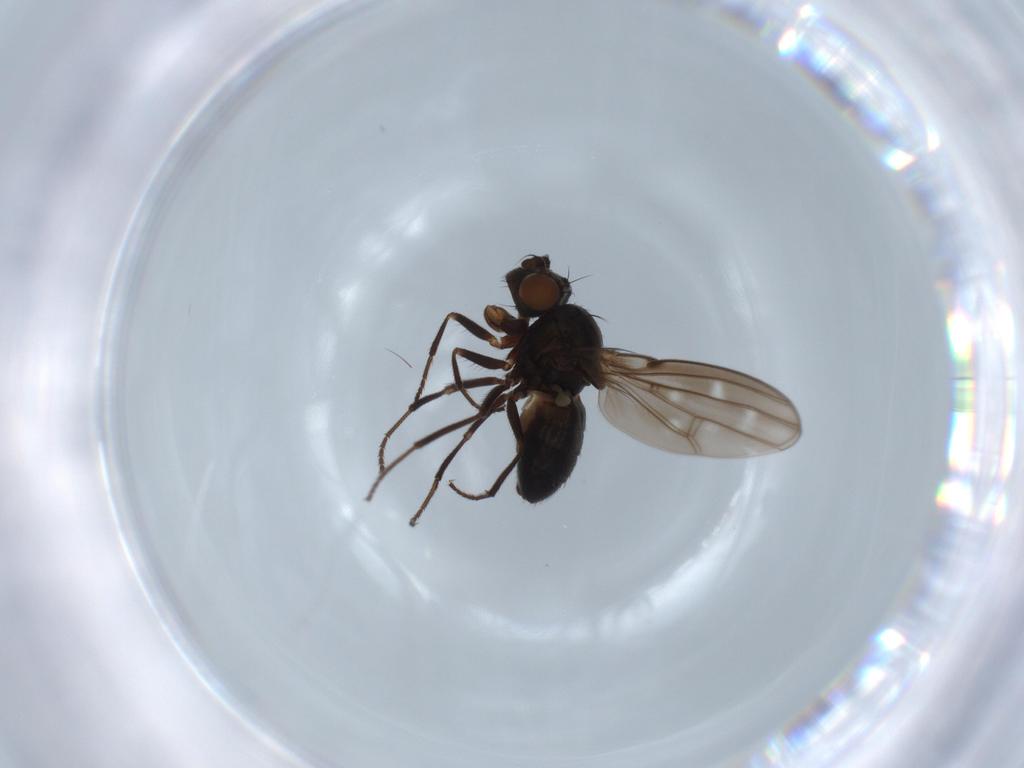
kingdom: Animalia
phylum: Arthropoda
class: Insecta
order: Diptera
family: Ephydridae
